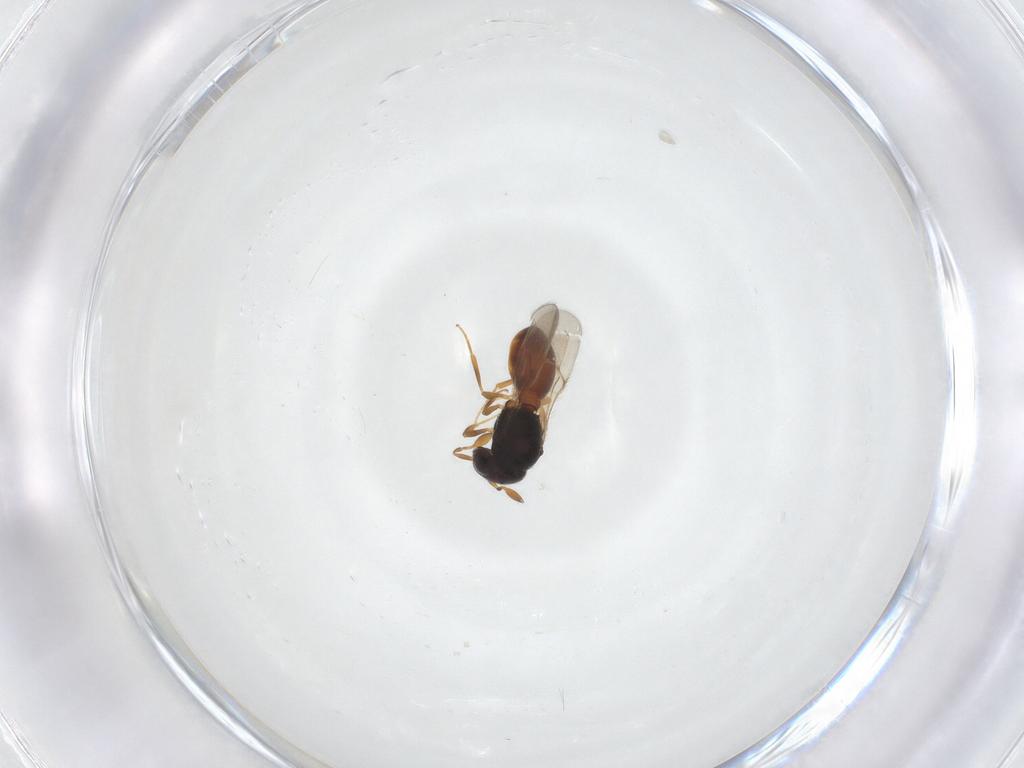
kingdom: Animalia
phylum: Arthropoda
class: Arachnida
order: Araneae
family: Pholcidae
